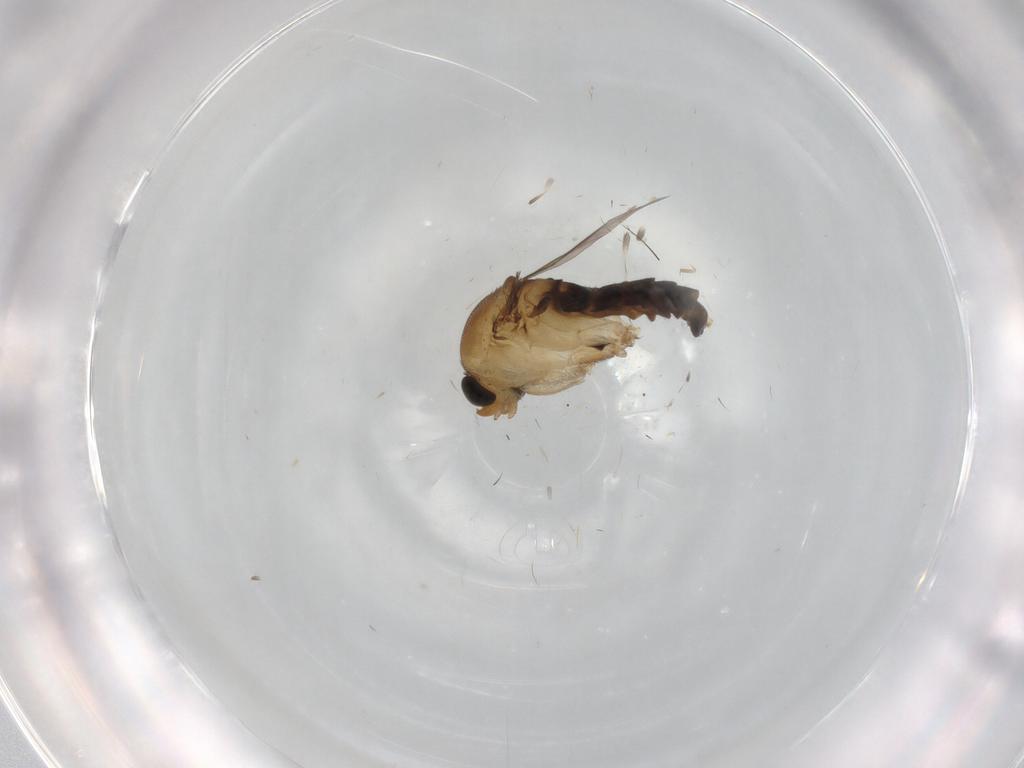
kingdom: Animalia
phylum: Arthropoda
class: Insecta
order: Diptera
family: Phoridae
